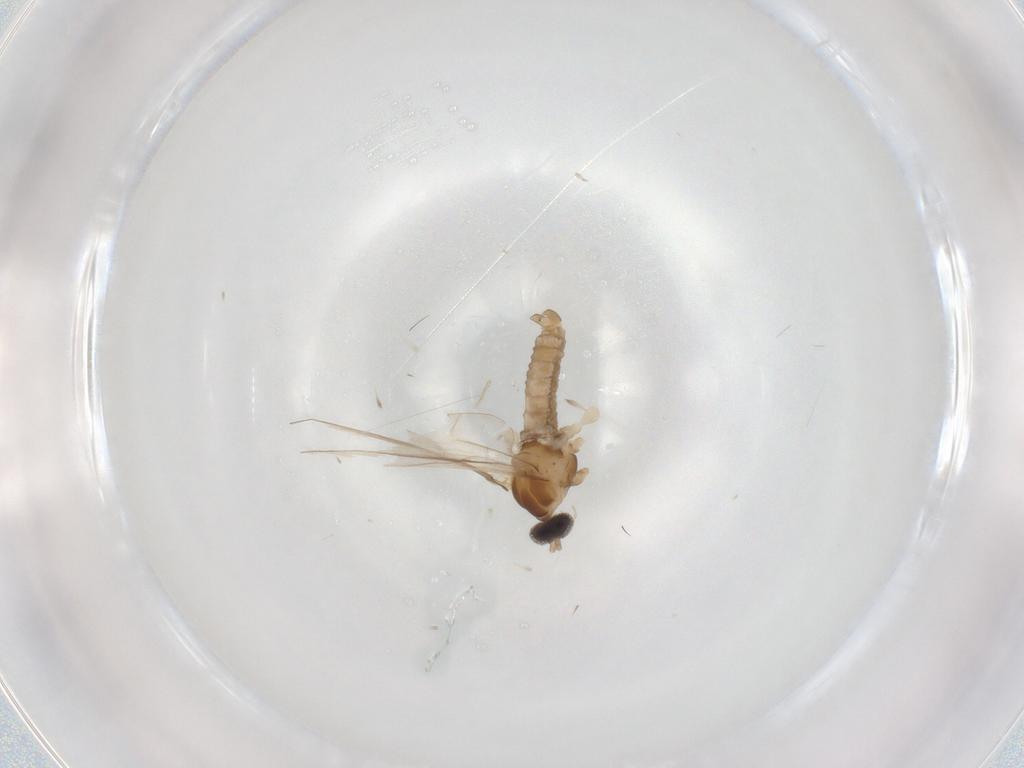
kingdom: Animalia
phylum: Arthropoda
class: Insecta
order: Diptera
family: Cecidomyiidae
